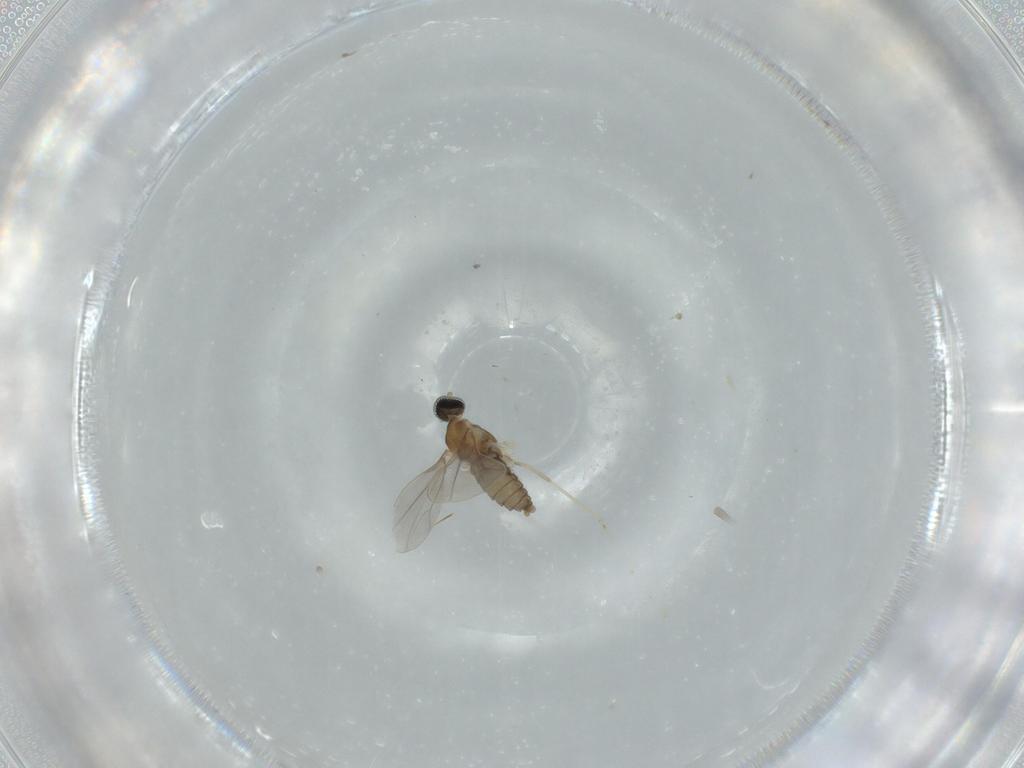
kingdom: Animalia
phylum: Arthropoda
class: Insecta
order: Diptera
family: Cecidomyiidae
